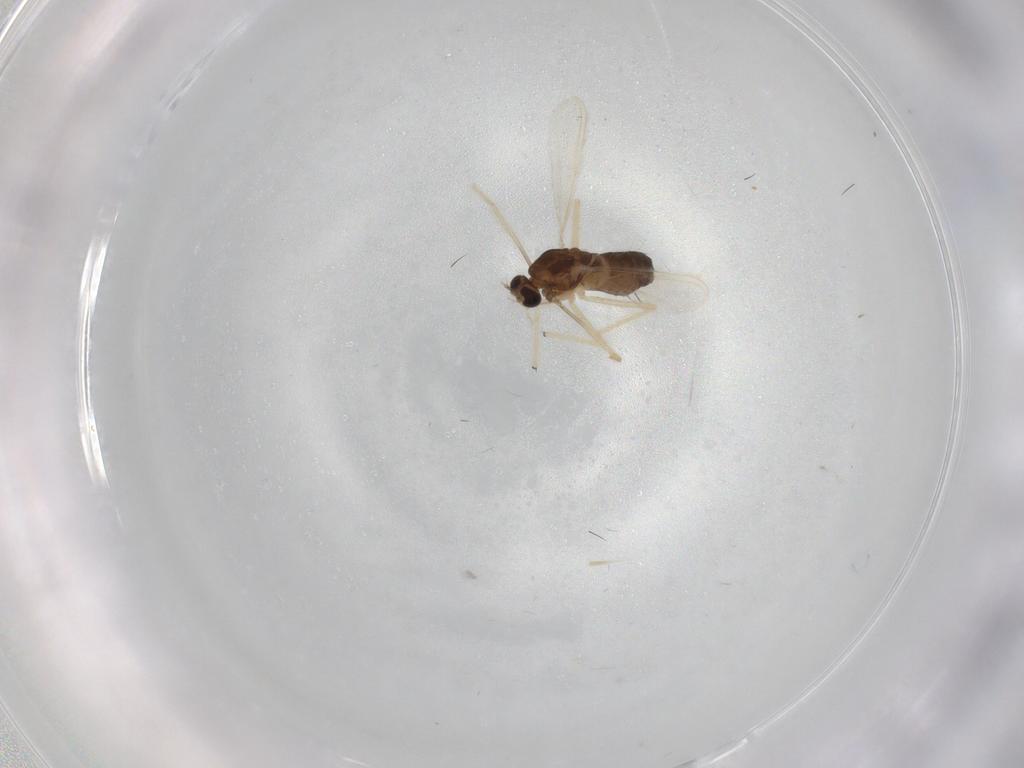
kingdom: Animalia
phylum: Arthropoda
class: Insecta
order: Diptera
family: Chironomidae
